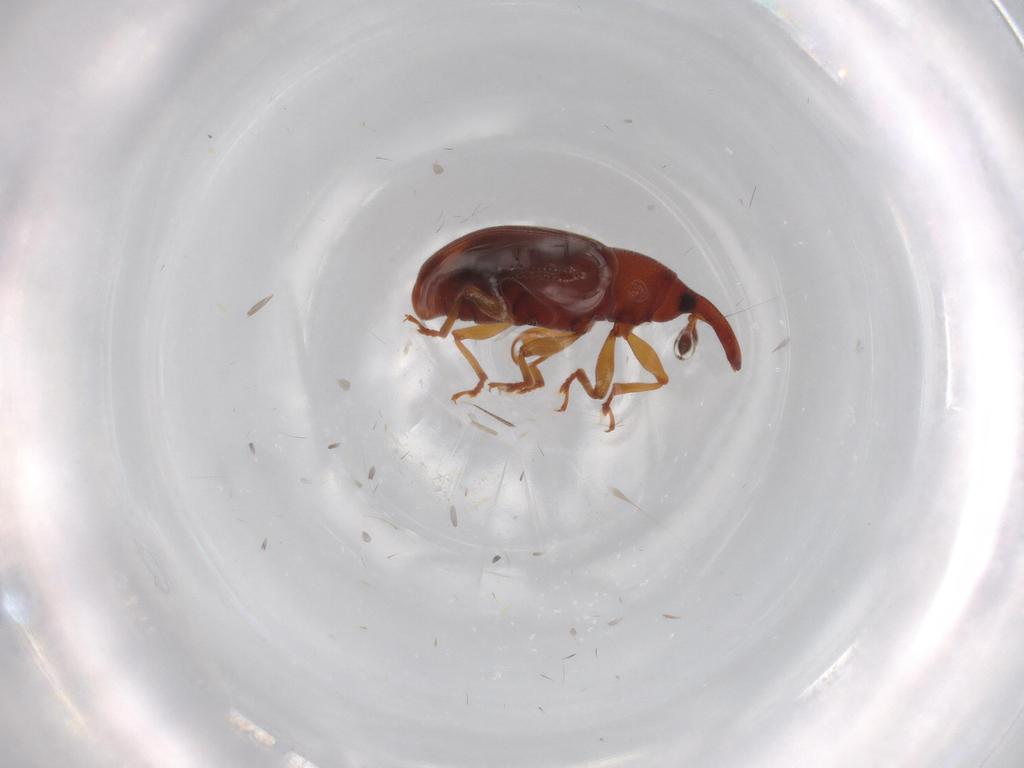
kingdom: Animalia
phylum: Arthropoda
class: Insecta
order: Coleoptera
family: Curculionidae
